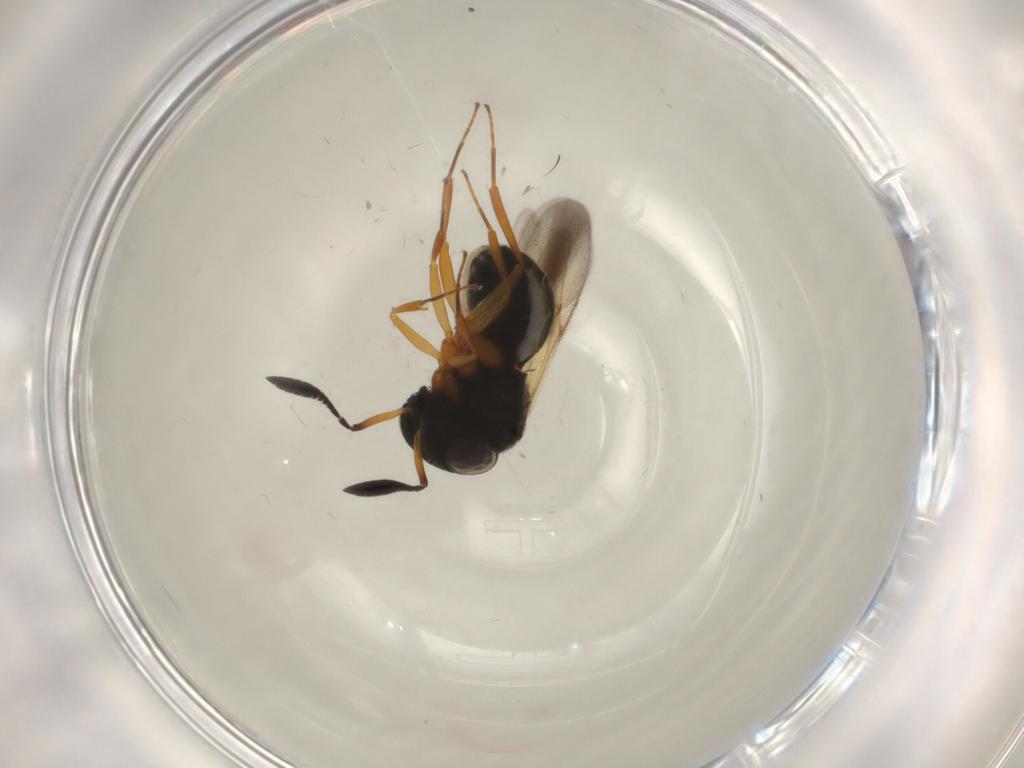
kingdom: Animalia
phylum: Arthropoda
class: Insecta
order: Hymenoptera
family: Scelionidae
